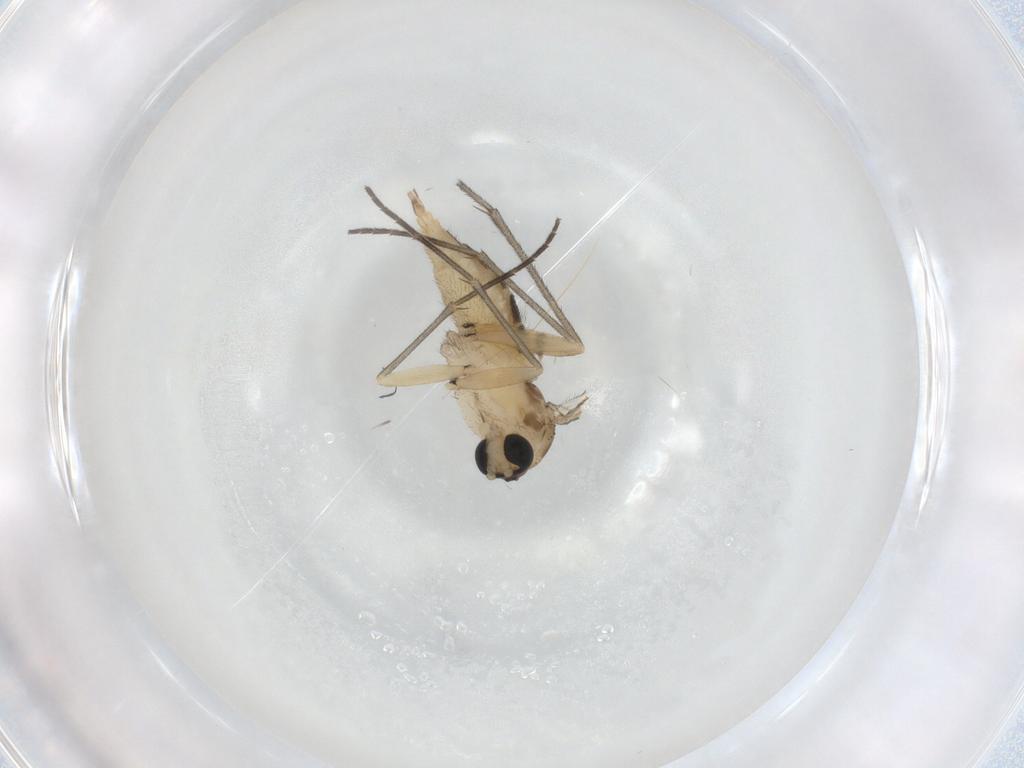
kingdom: Animalia
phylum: Arthropoda
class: Insecta
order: Diptera
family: Sciaridae
